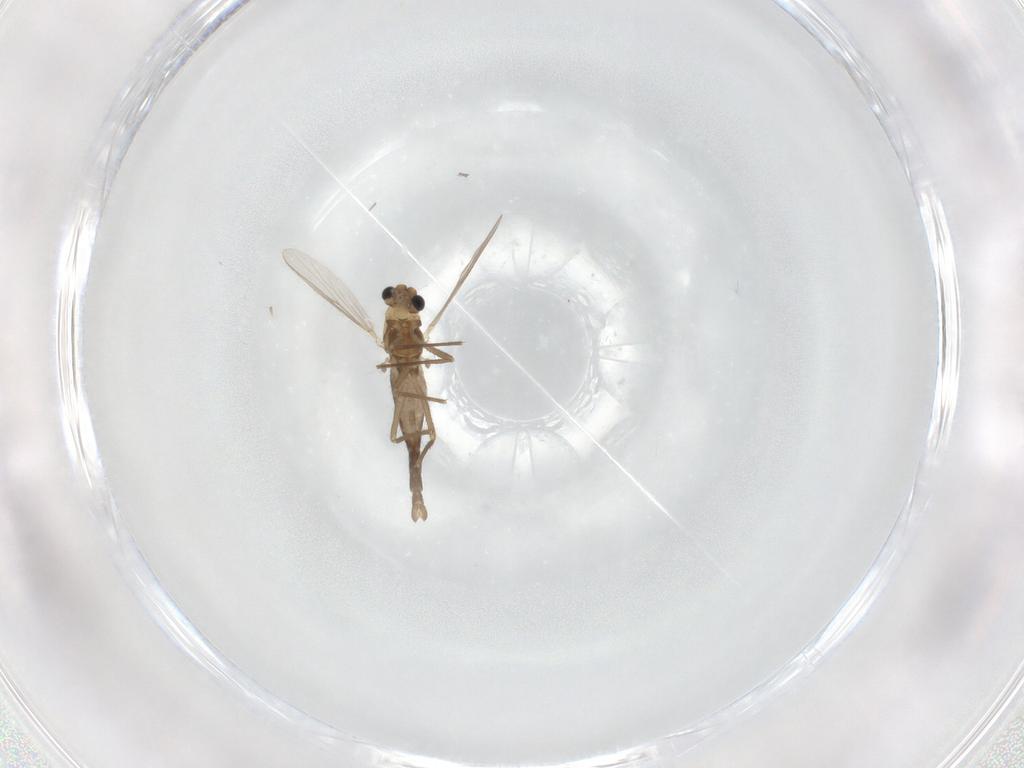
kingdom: Animalia
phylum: Arthropoda
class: Insecta
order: Diptera
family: Chironomidae
